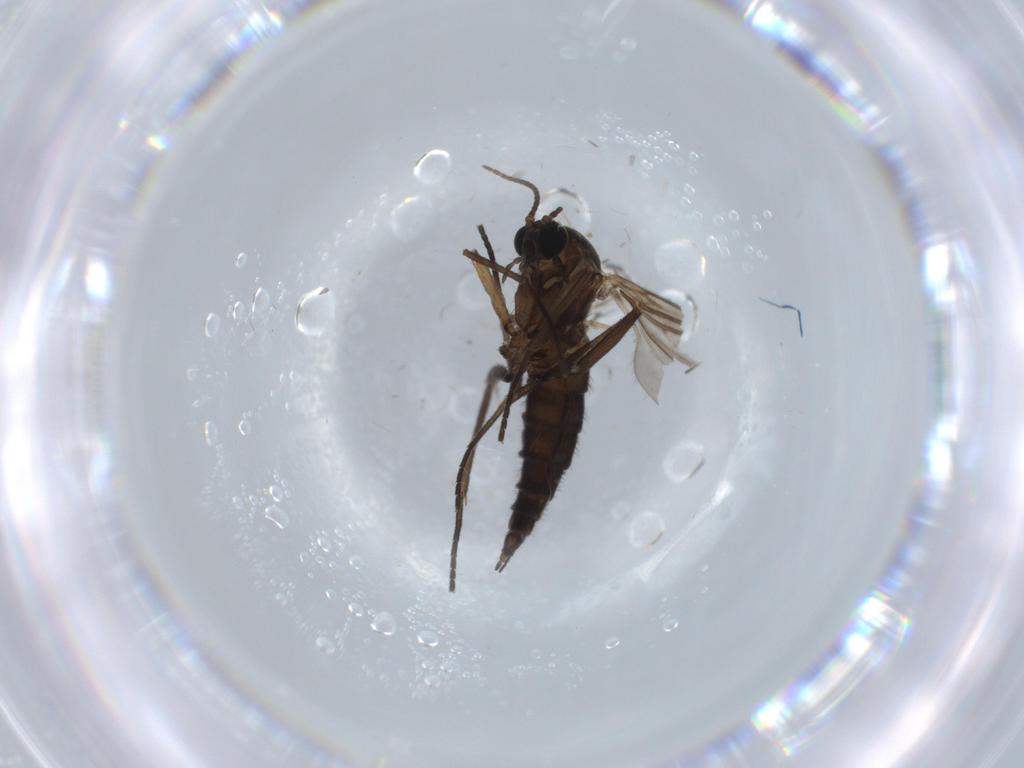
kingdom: Animalia
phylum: Arthropoda
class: Insecta
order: Diptera
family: Sciaridae
